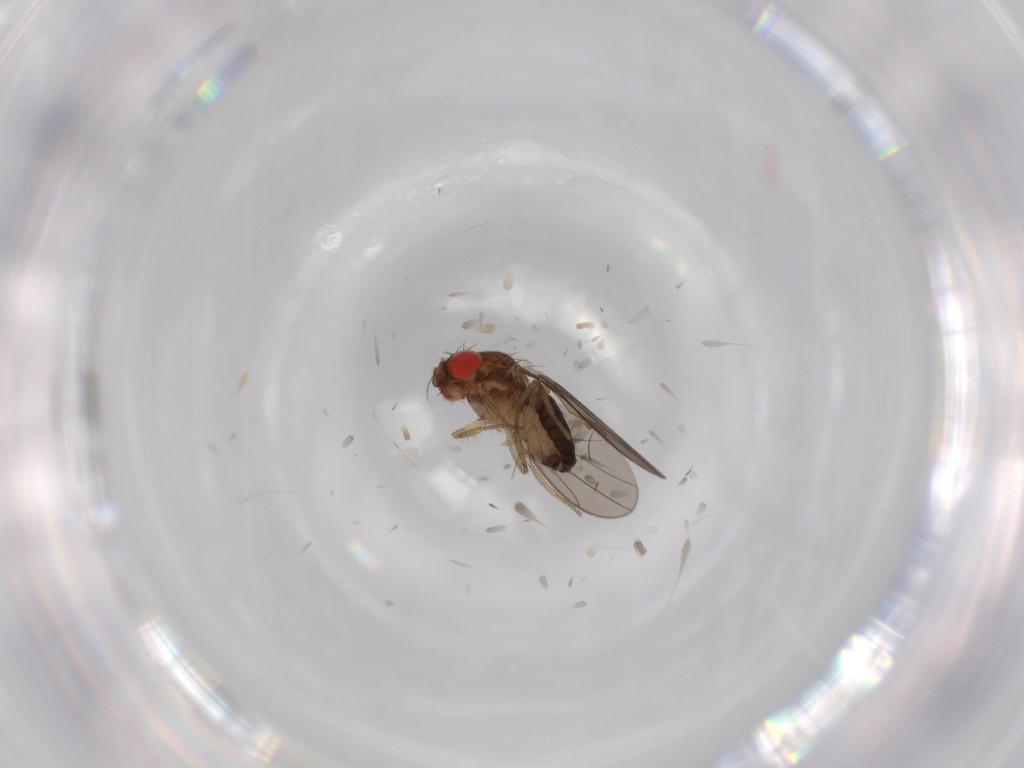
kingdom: Animalia
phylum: Arthropoda
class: Insecta
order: Diptera
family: Drosophilidae
